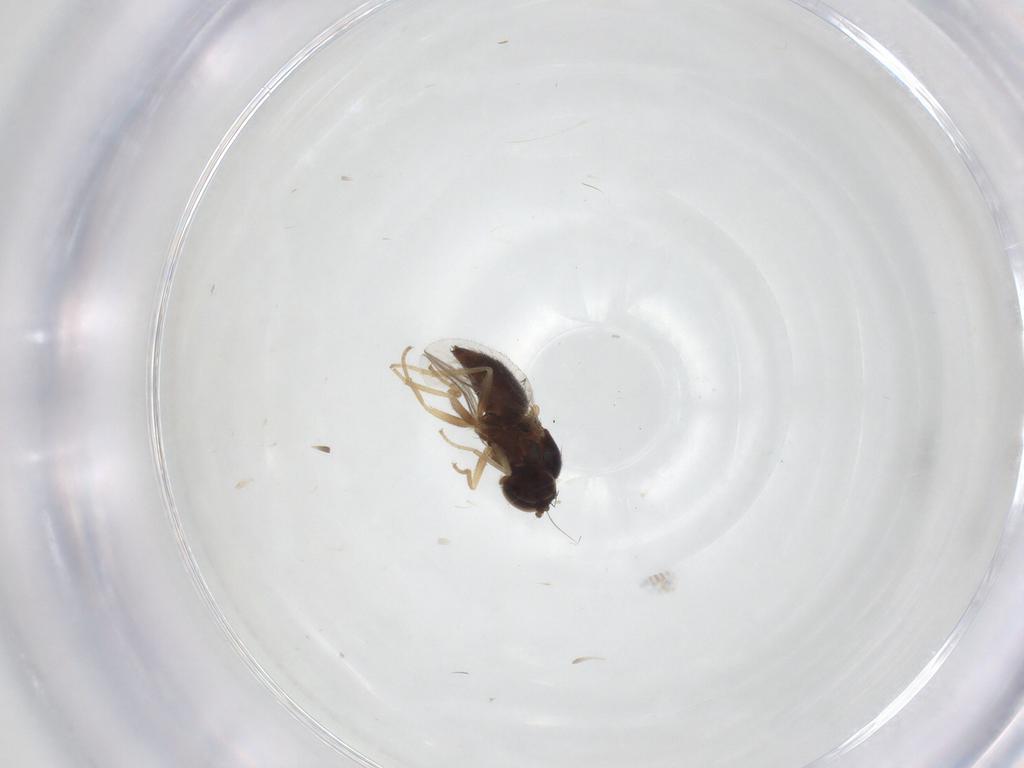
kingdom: Animalia
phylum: Arthropoda
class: Insecta
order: Diptera
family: Dolichopodidae
